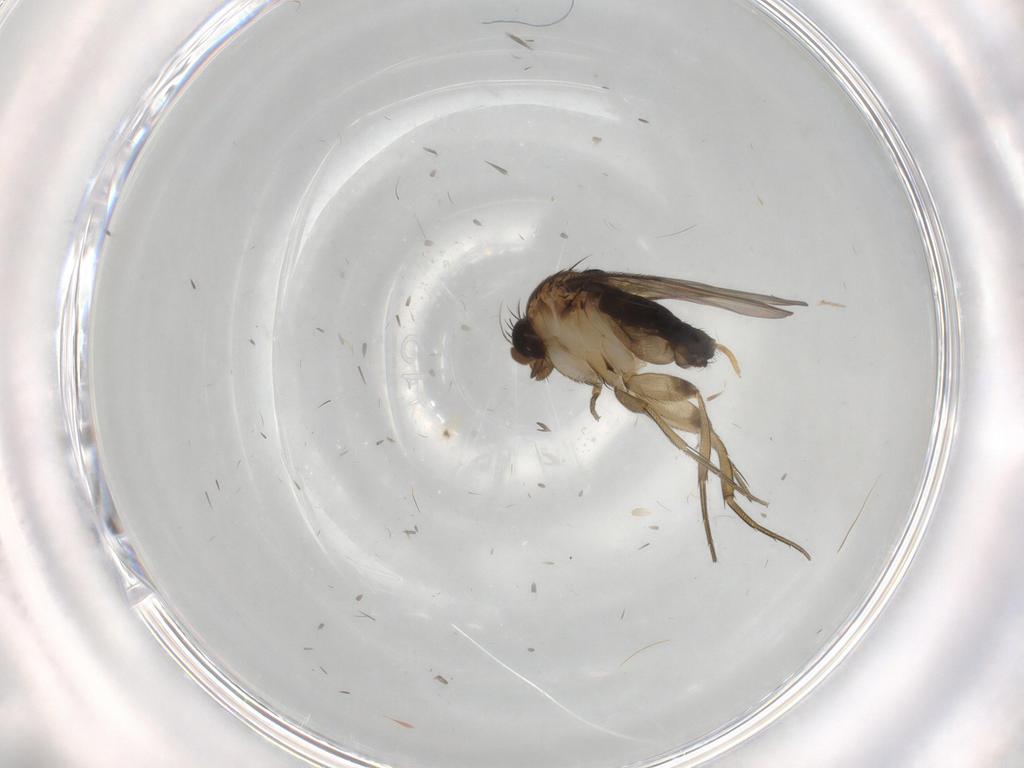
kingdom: Animalia
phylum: Arthropoda
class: Insecta
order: Diptera
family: Phoridae
